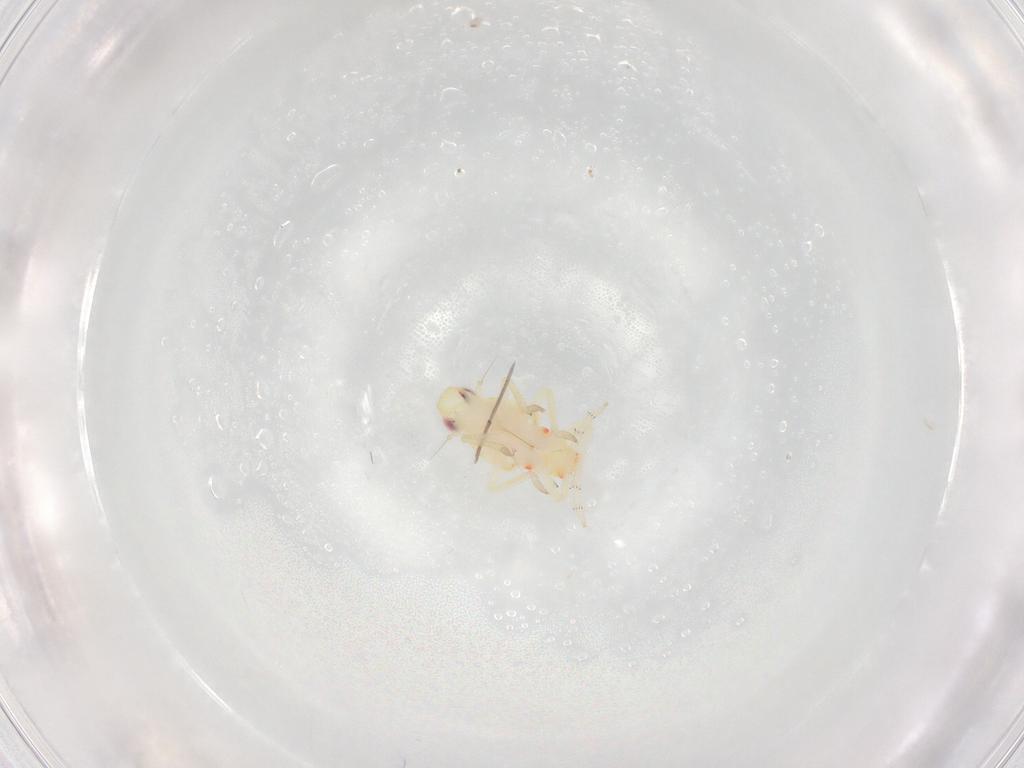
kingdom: Animalia
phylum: Arthropoda
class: Insecta
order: Hemiptera
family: Tropiduchidae
